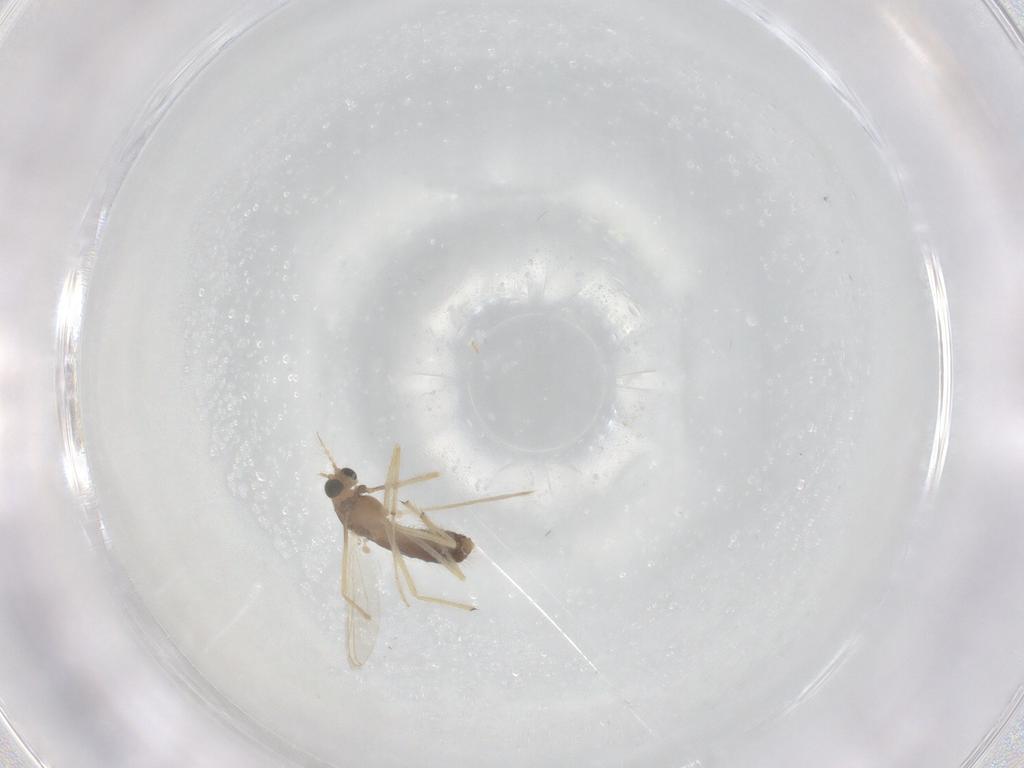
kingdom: Animalia
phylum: Arthropoda
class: Insecta
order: Diptera
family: Chironomidae
